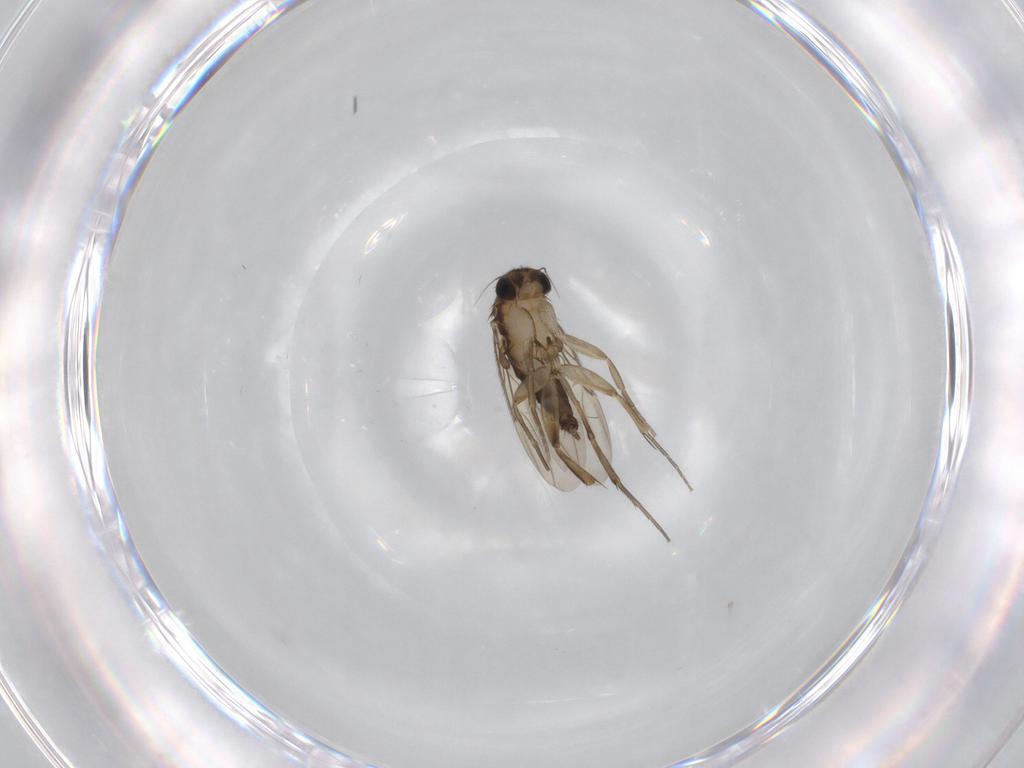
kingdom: Animalia
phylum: Arthropoda
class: Insecta
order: Diptera
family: Phoridae
